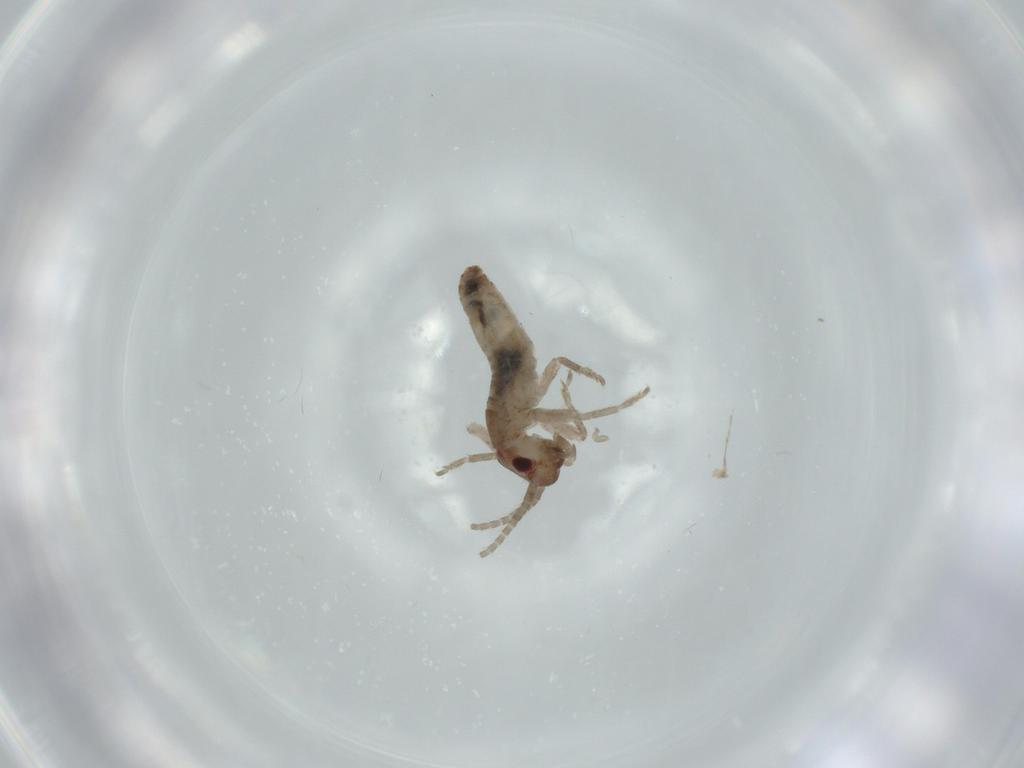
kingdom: Animalia
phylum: Arthropoda
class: Insecta
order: Orthoptera
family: Mogoplistidae
